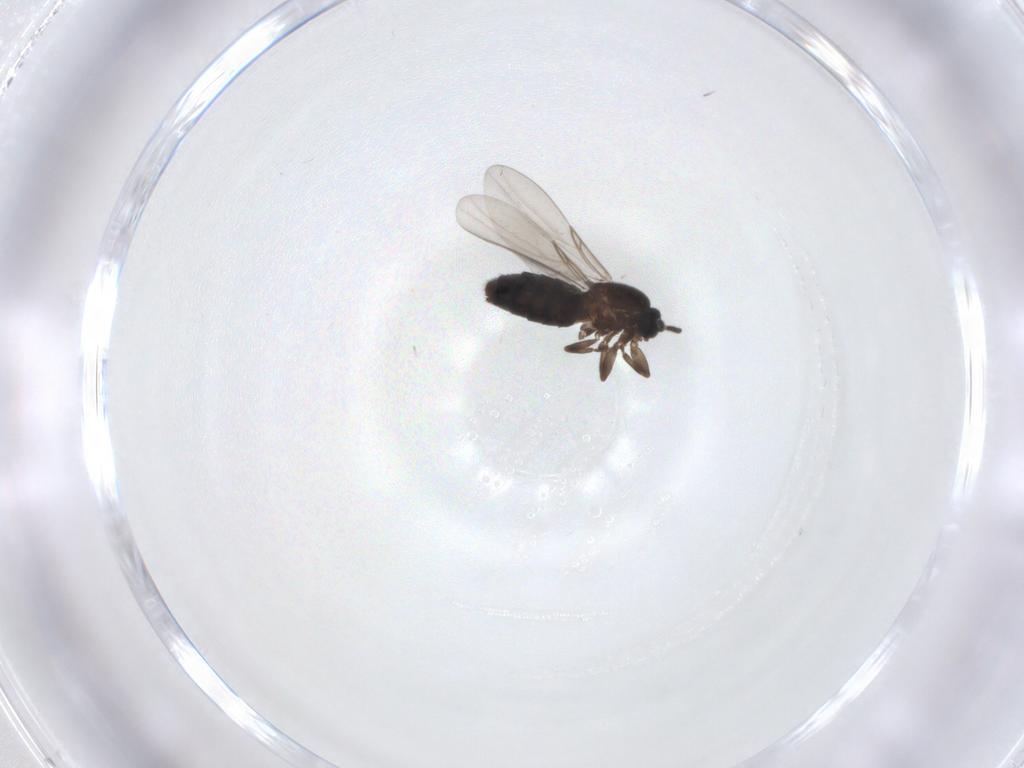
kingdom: Animalia
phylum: Arthropoda
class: Insecta
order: Diptera
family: Scatopsidae
